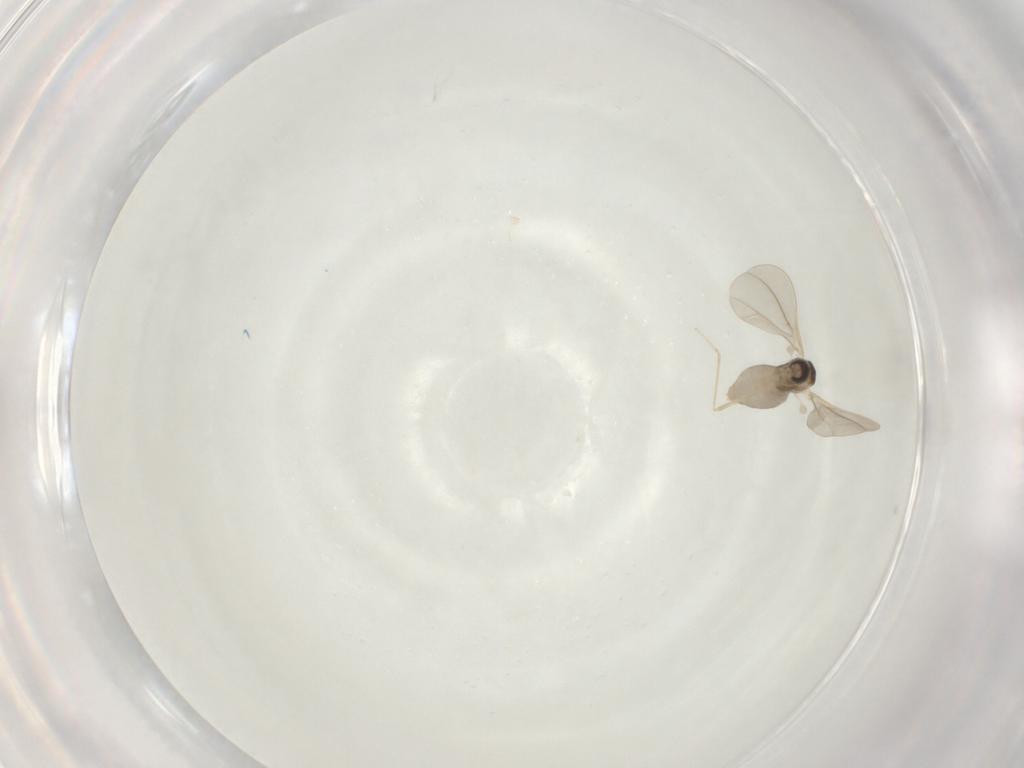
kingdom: Animalia
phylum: Arthropoda
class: Insecta
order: Diptera
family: Cecidomyiidae
